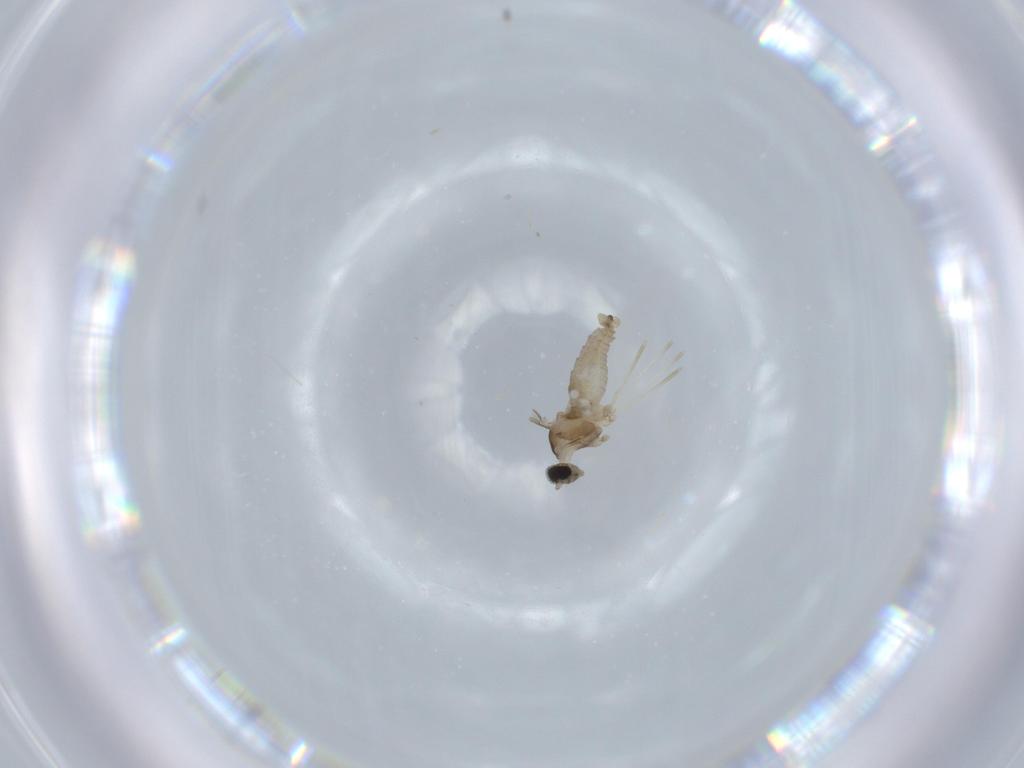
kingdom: Animalia
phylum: Arthropoda
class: Insecta
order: Diptera
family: Cecidomyiidae
